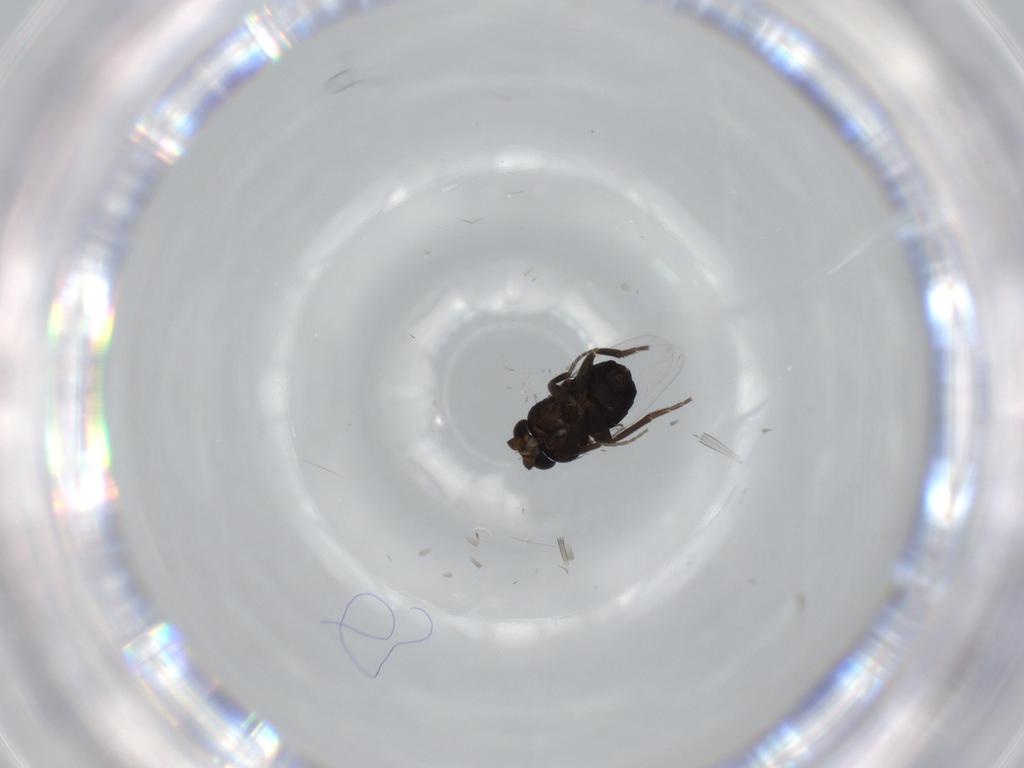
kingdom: Animalia
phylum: Arthropoda
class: Insecta
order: Diptera
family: Phoridae
